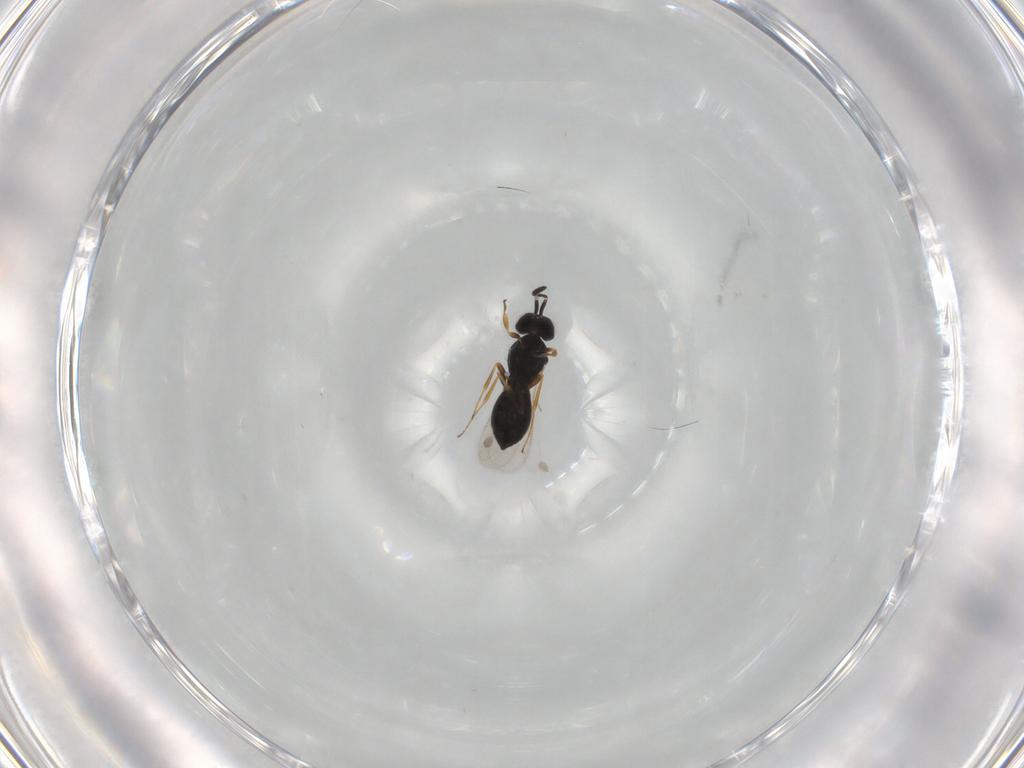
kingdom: Animalia
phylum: Arthropoda
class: Insecta
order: Hymenoptera
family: Scelionidae
